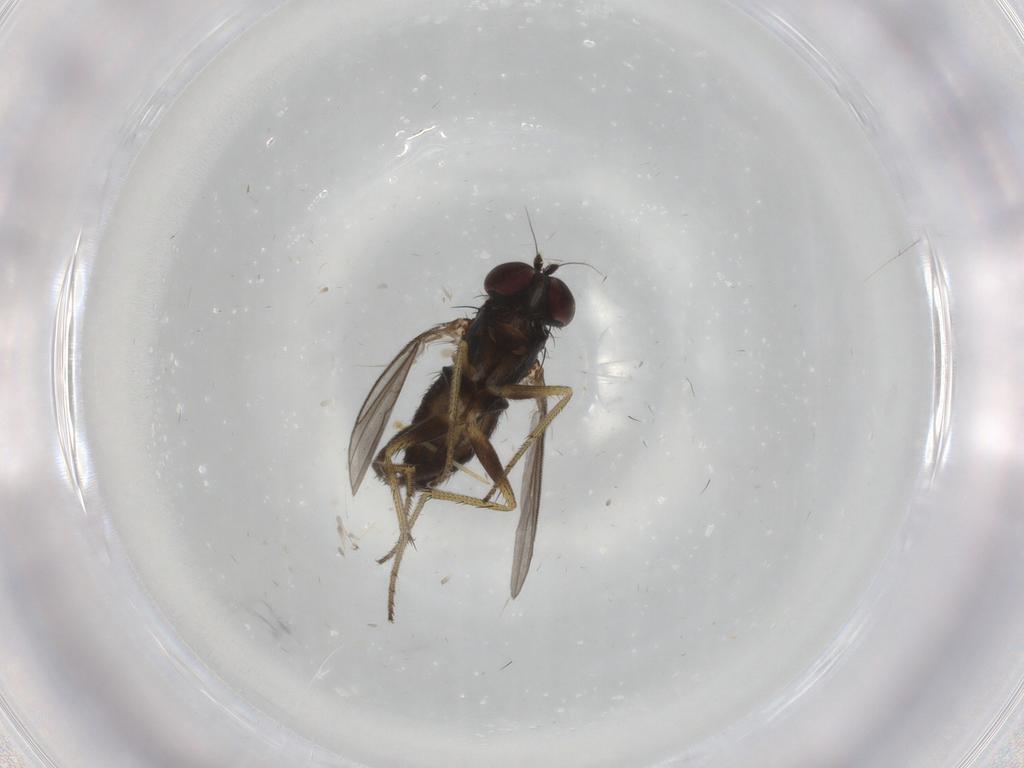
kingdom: Animalia
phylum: Arthropoda
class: Insecta
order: Diptera
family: Dolichopodidae
